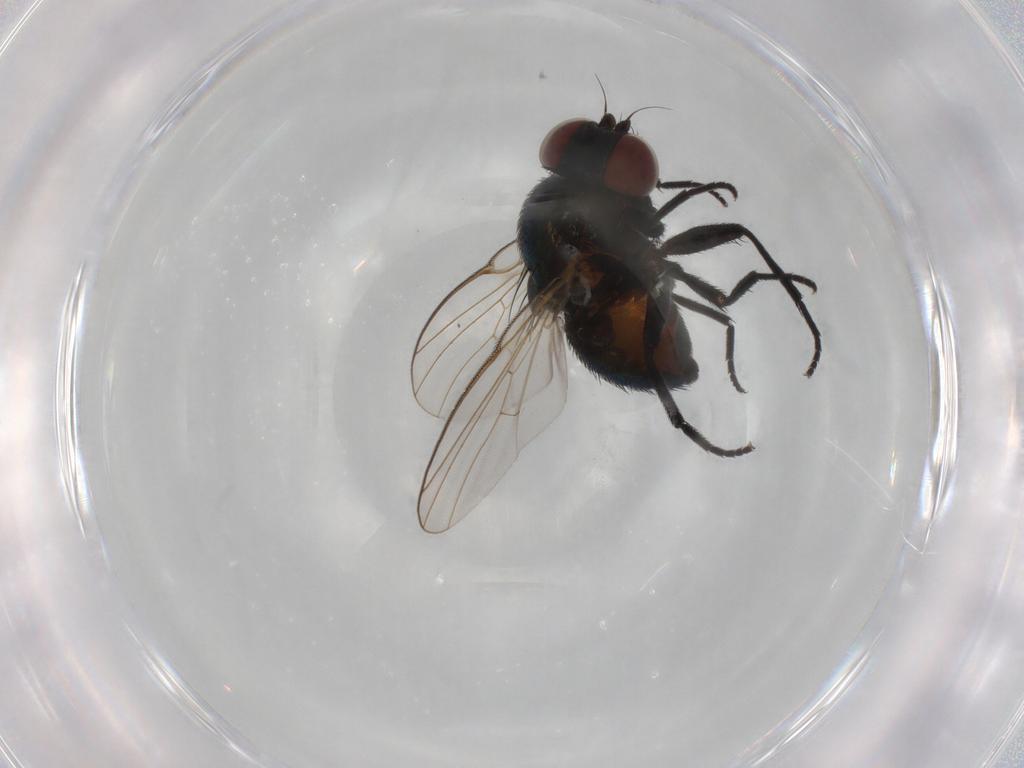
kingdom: Animalia
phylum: Arthropoda
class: Insecta
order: Diptera
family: Agromyzidae
